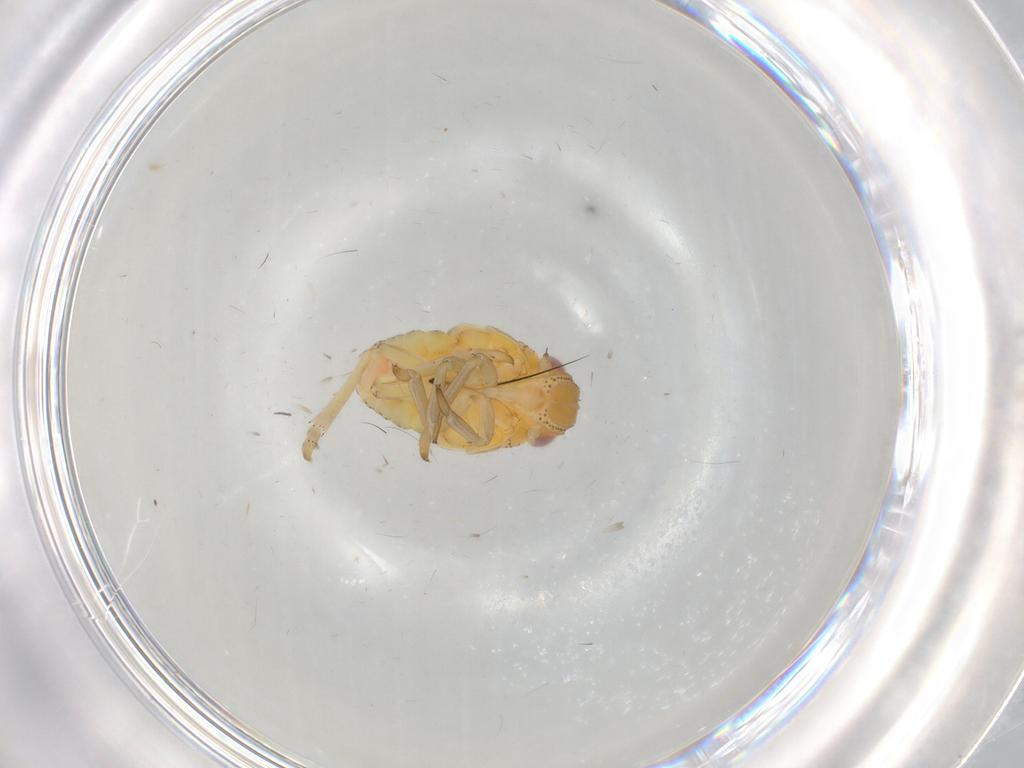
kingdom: Animalia
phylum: Arthropoda
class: Insecta
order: Hemiptera
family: Tropiduchidae
